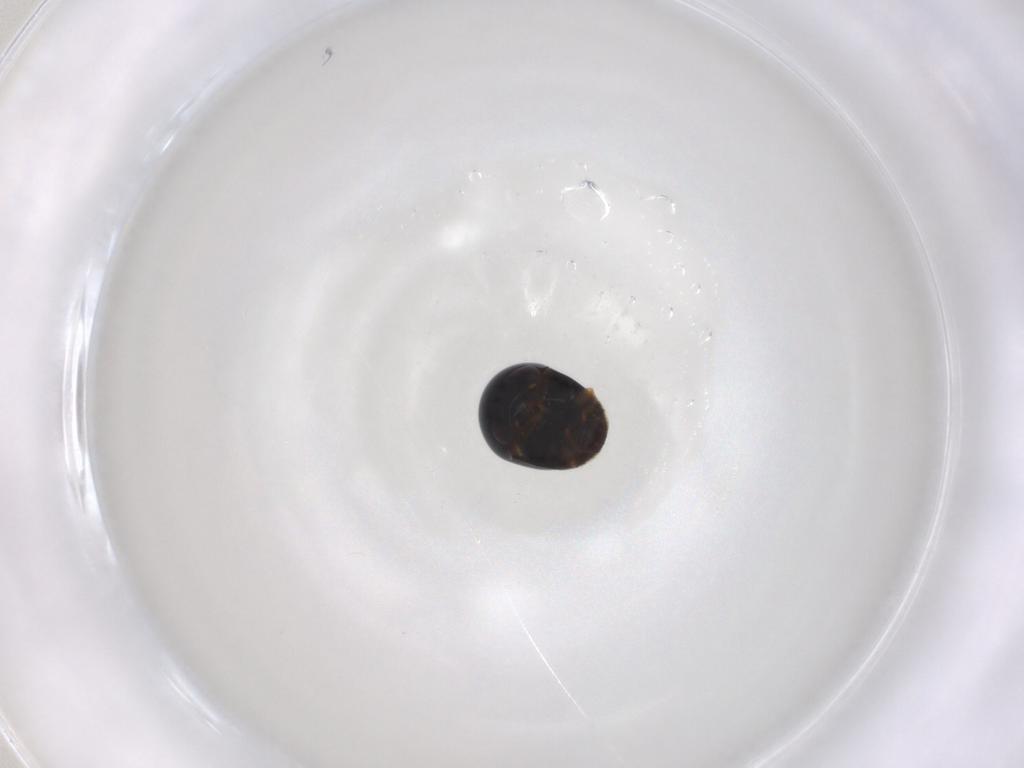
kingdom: Animalia
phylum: Arthropoda
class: Insecta
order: Coleoptera
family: Cybocephalidae
